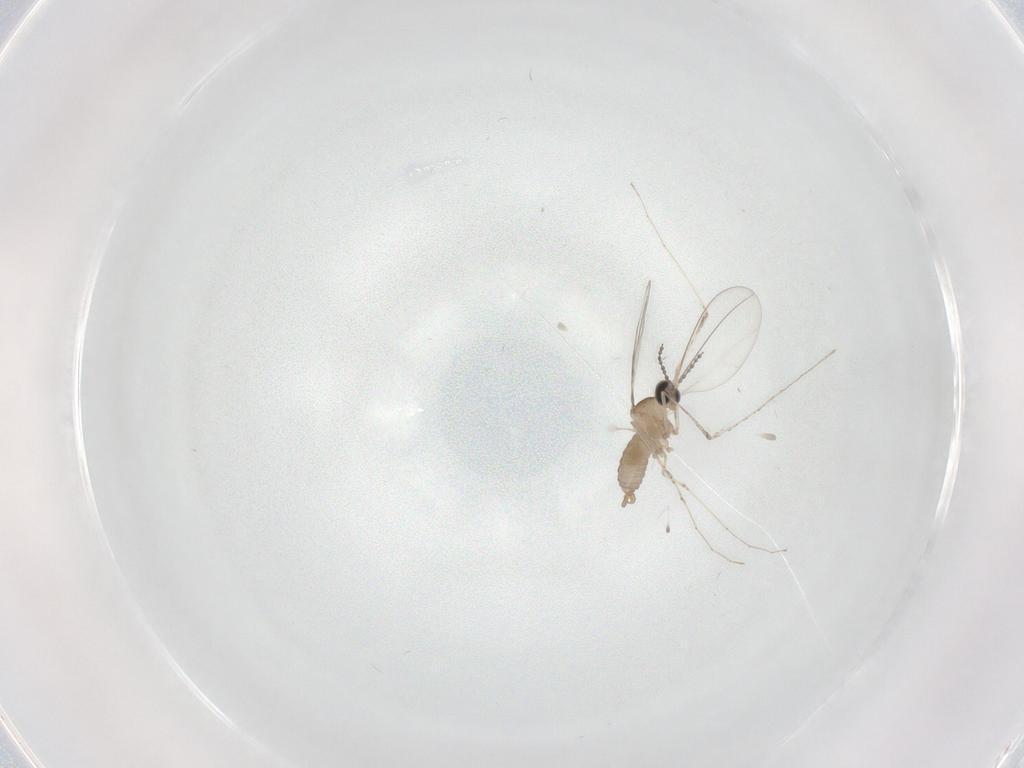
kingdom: Animalia
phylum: Arthropoda
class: Insecta
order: Diptera
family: Cecidomyiidae
